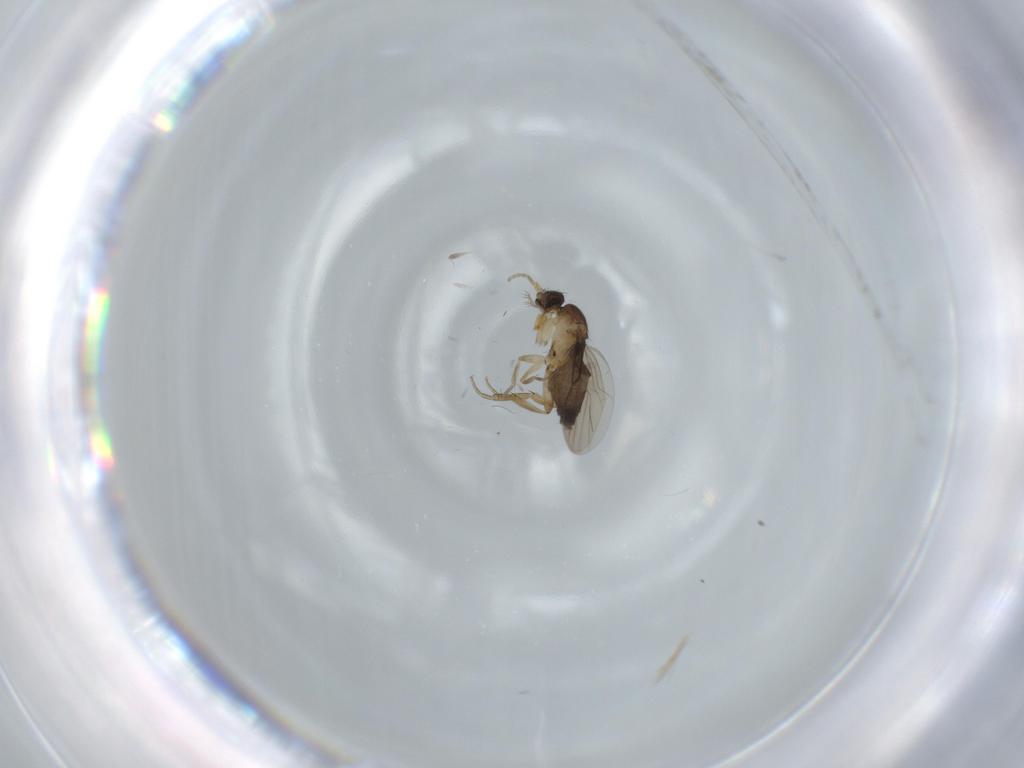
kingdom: Animalia
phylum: Arthropoda
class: Insecta
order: Diptera
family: Phoridae
